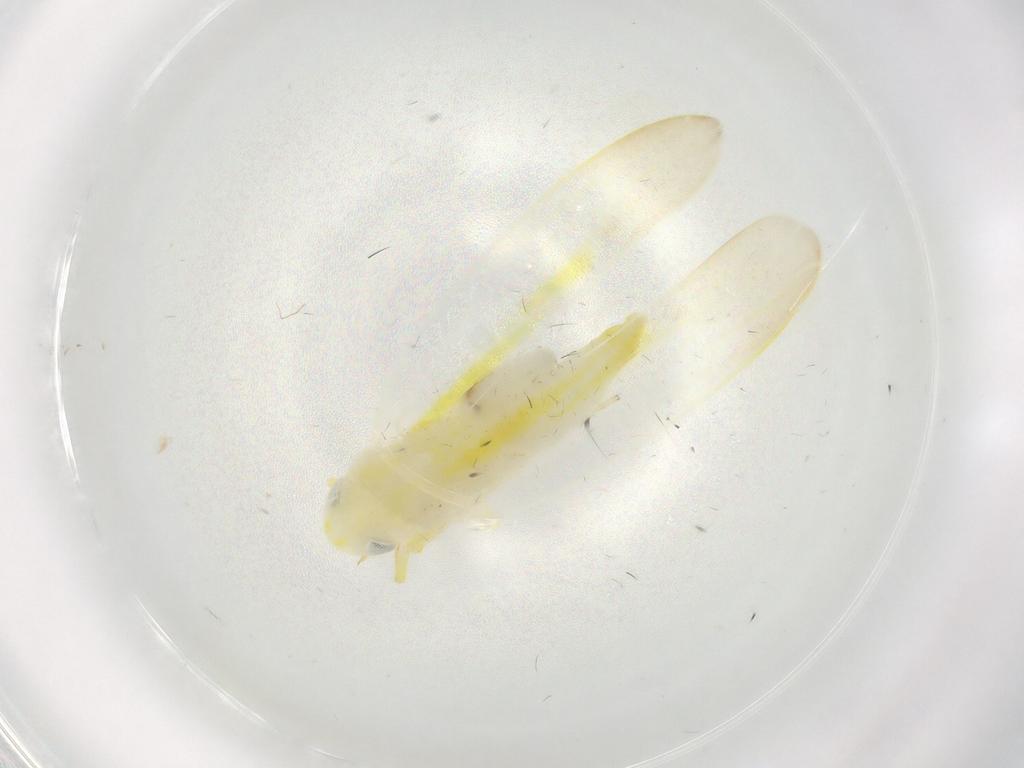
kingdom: Animalia
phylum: Arthropoda
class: Insecta
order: Hemiptera
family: Cicadellidae
